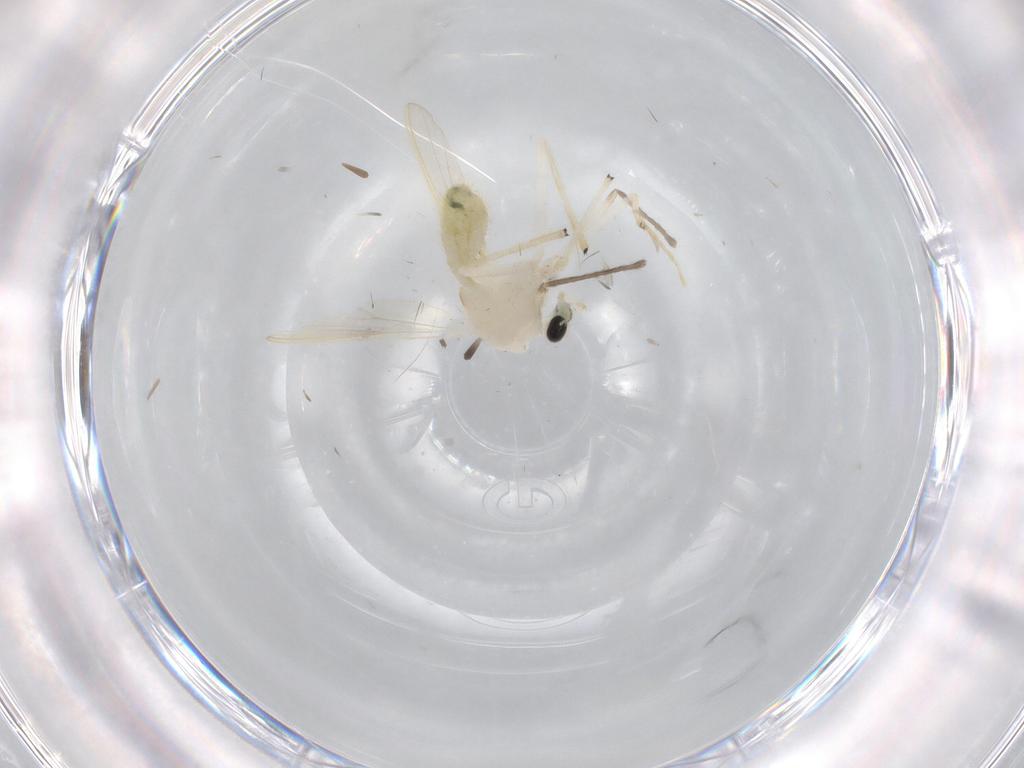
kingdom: Animalia
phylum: Arthropoda
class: Insecta
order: Diptera
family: Chironomidae
